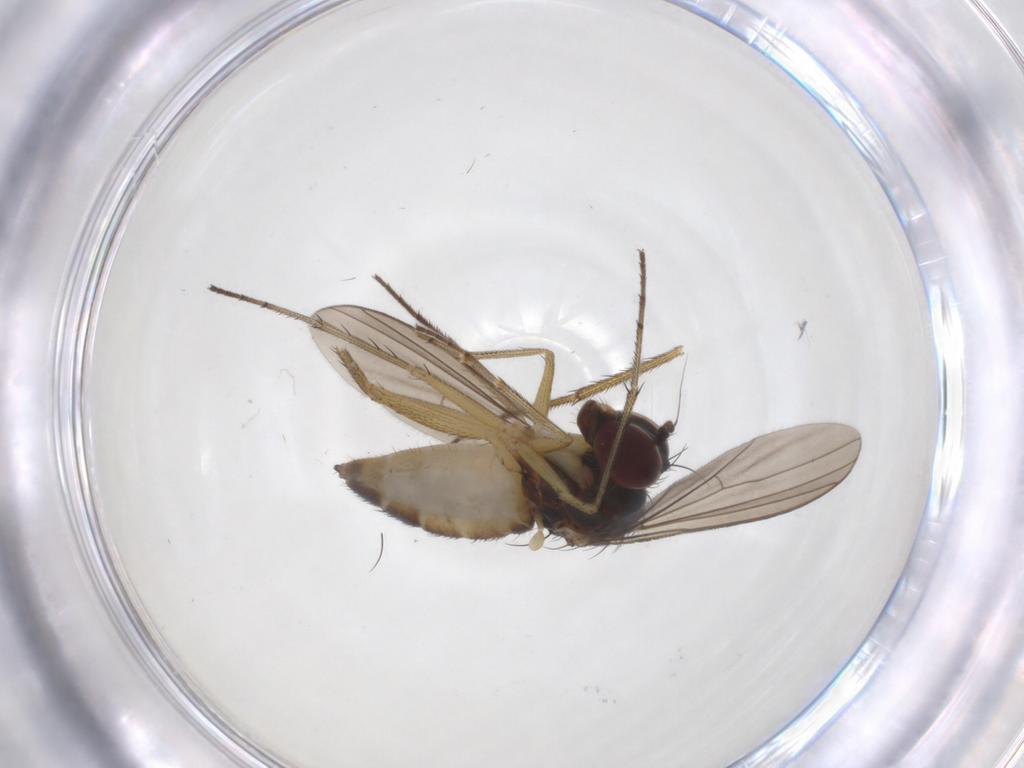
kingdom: Animalia
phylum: Arthropoda
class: Insecta
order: Diptera
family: Dolichopodidae
